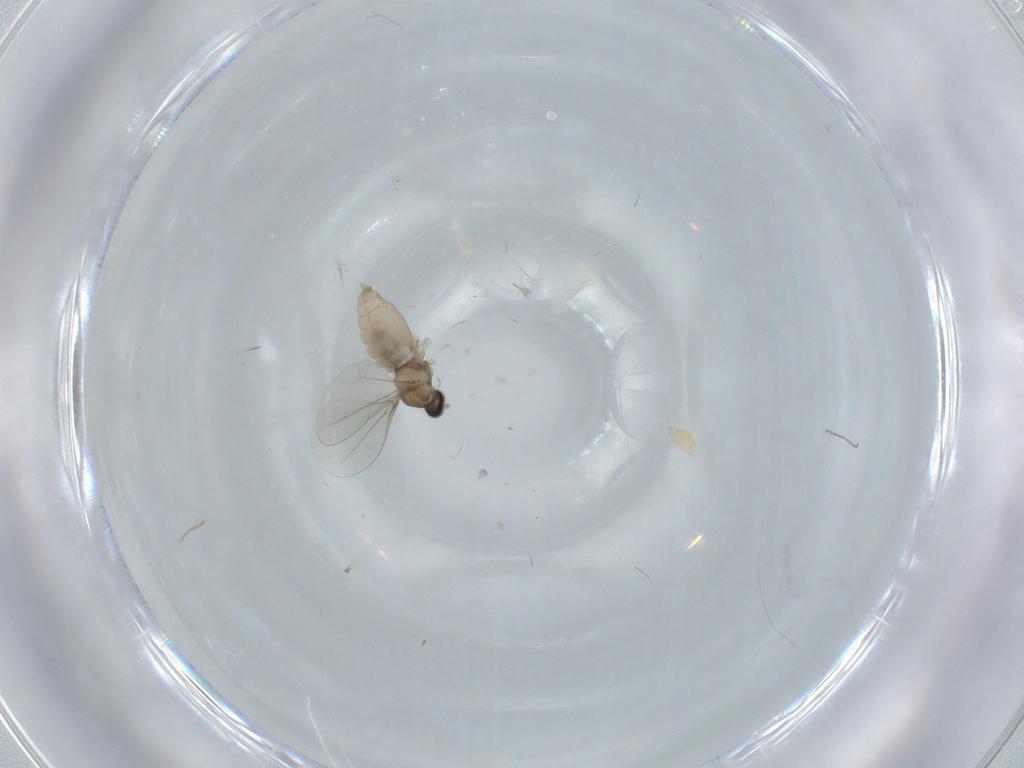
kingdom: Animalia
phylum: Arthropoda
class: Insecta
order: Diptera
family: Cecidomyiidae
